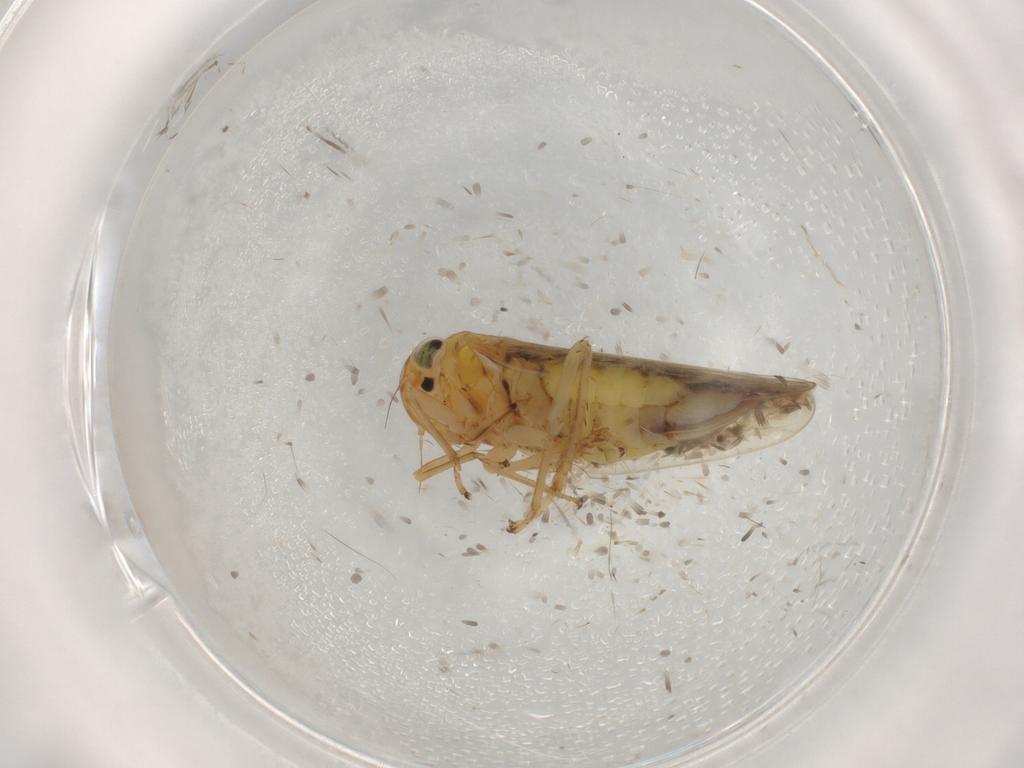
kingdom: Animalia
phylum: Arthropoda
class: Insecta
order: Hemiptera
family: Cicadellidae
